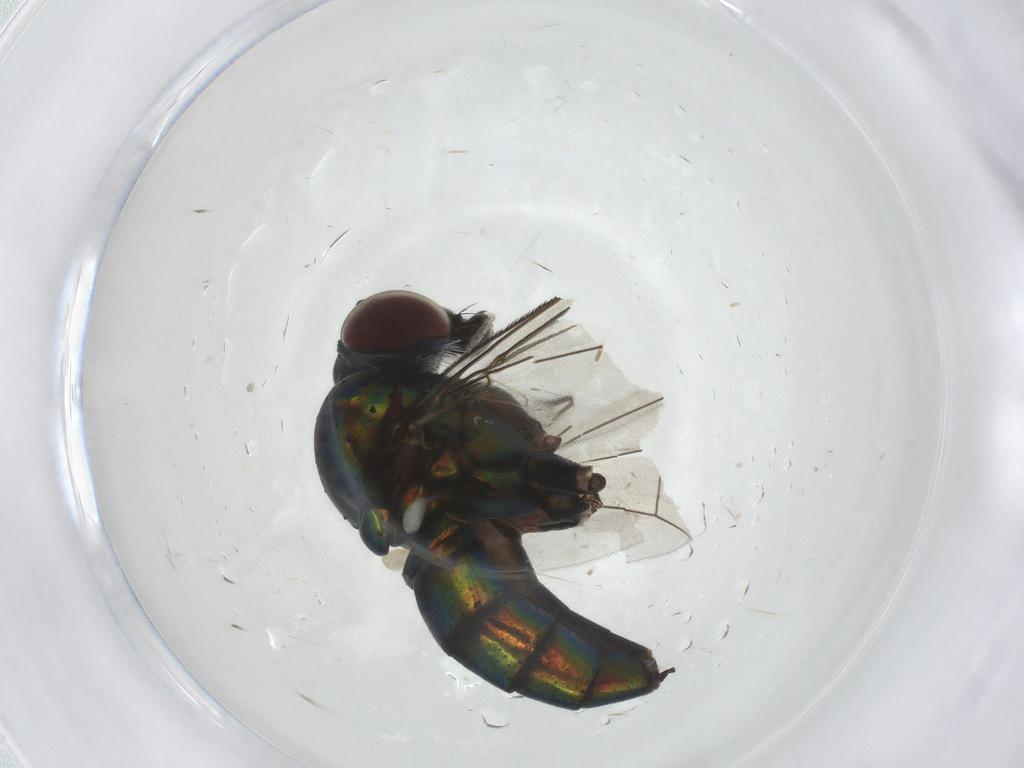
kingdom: Animalia
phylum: Arthropoda
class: Insecta
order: Diptera
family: Dolichopodidae
